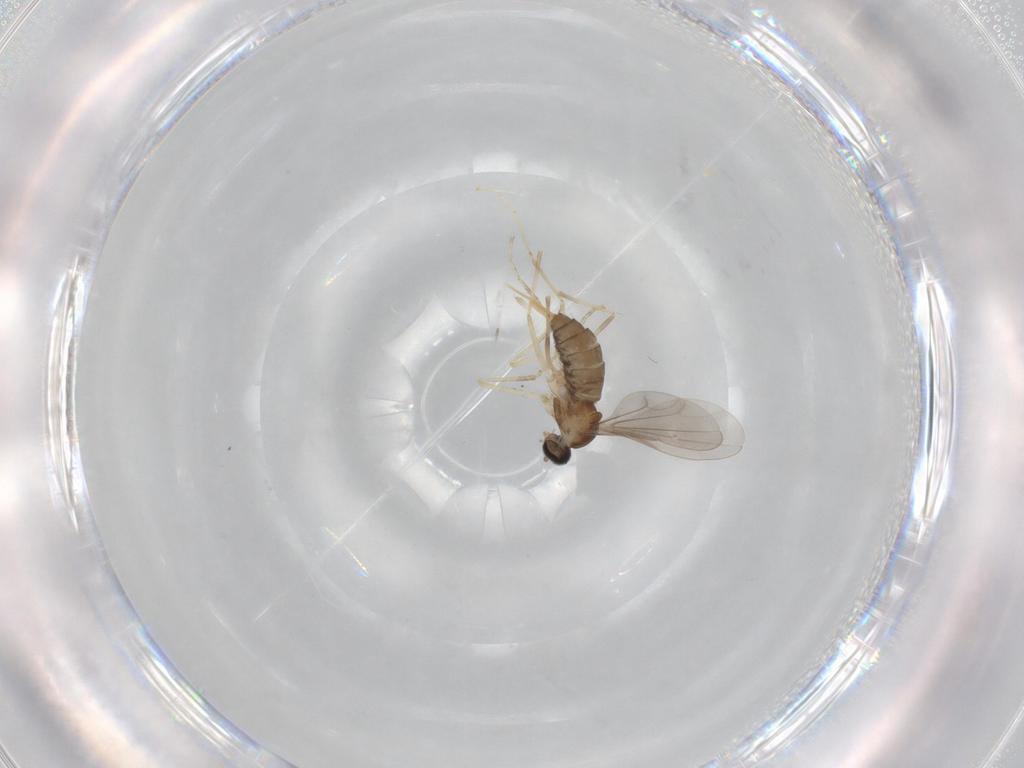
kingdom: Animalia
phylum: Arthropoda
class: Insecta
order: Diptera
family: Cecidomyiidae
